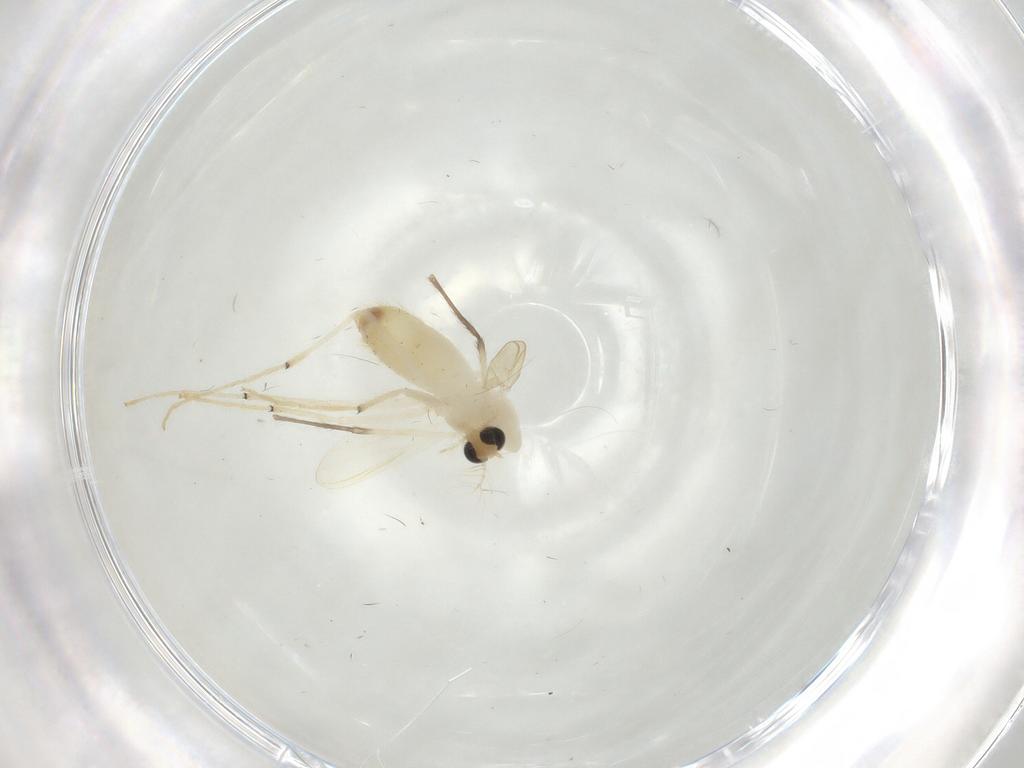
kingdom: Animalia
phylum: Arthropoda
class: Insecta
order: Diptera
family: Chironomidae
